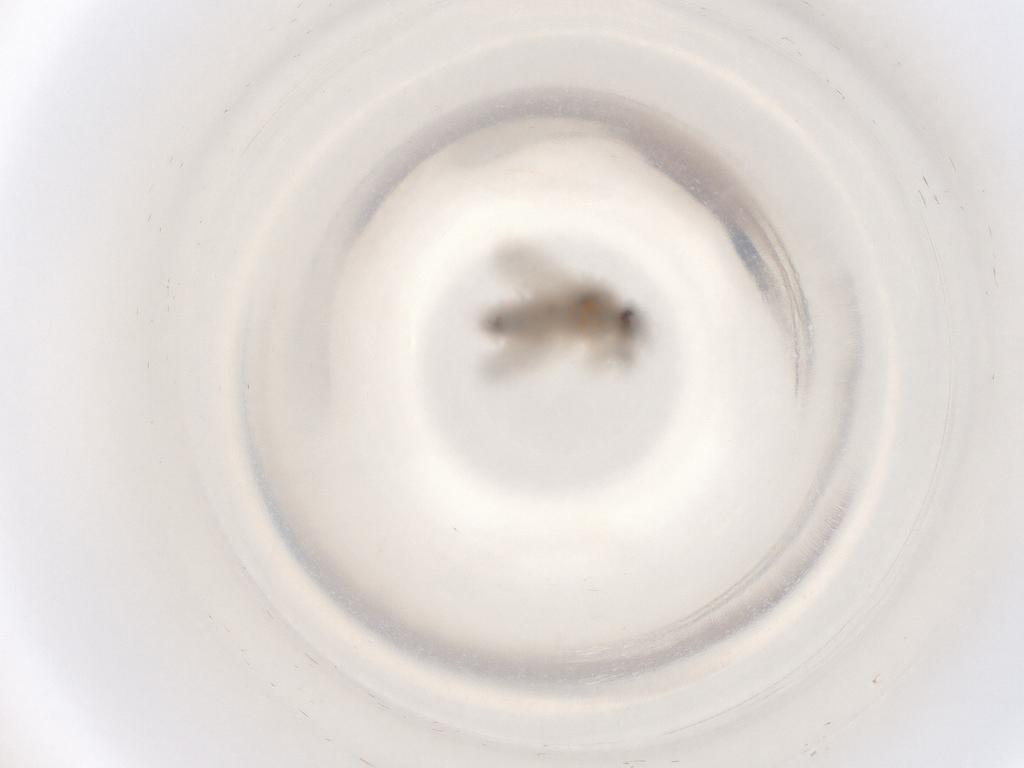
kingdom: Animalia
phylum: Arthropoda
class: Insecta
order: Diptera
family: Ceratopogonidae
